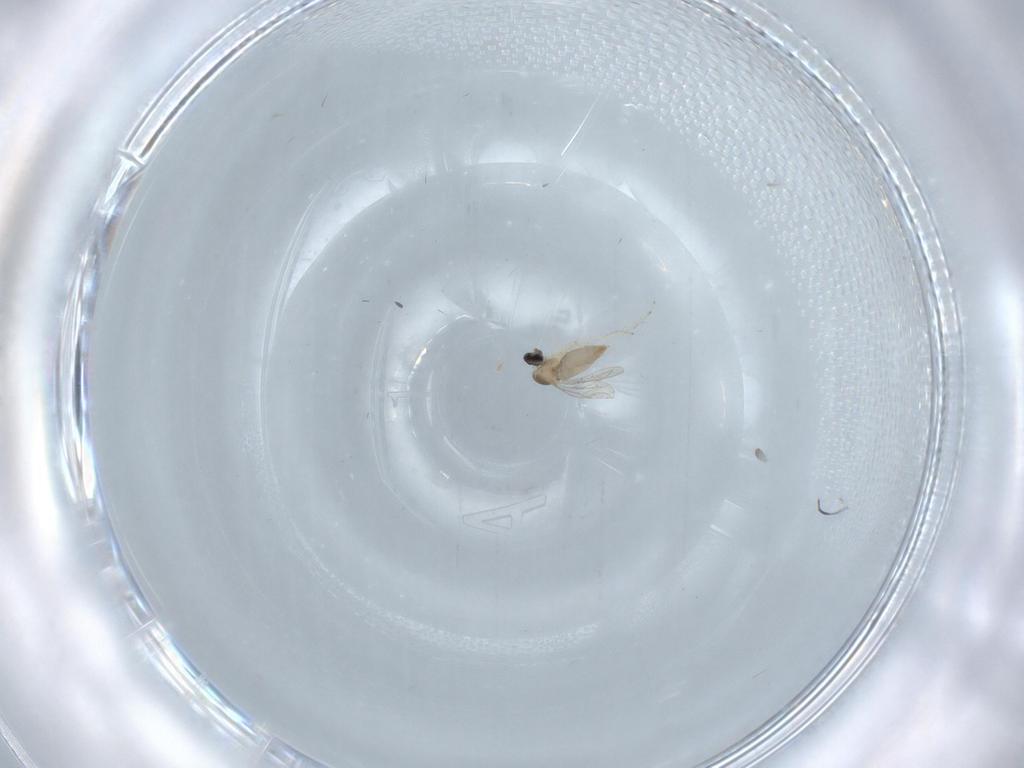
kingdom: Animalia
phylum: Arthropoda
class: Insecta
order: Diptera
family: Cecidomyiidae
